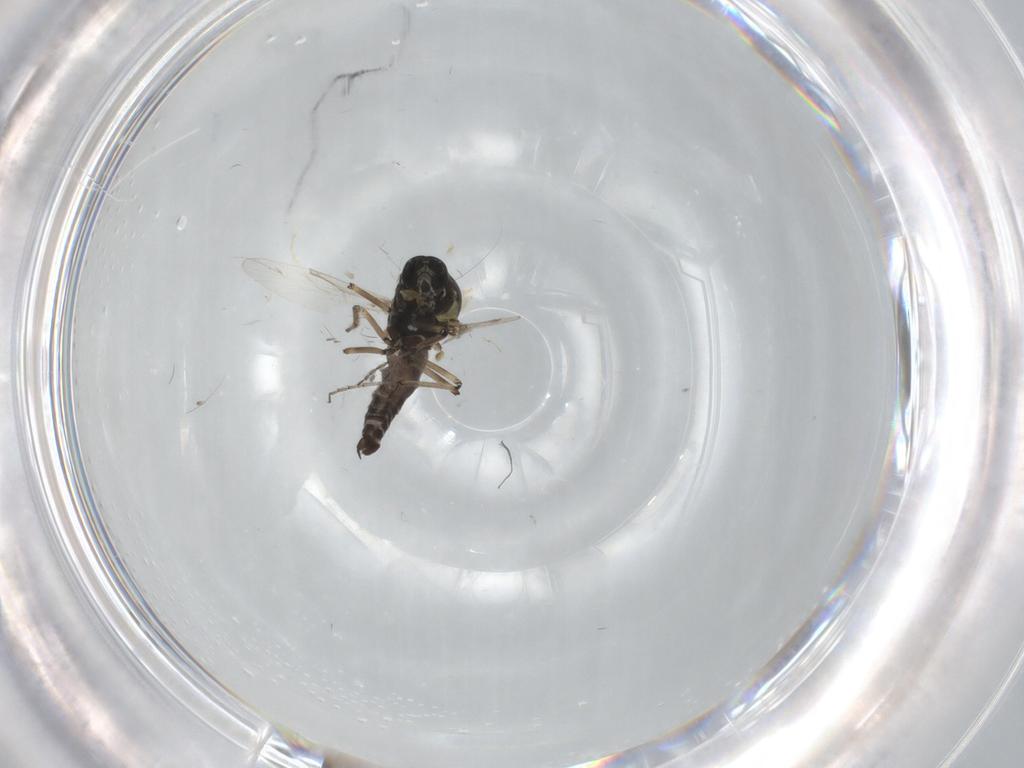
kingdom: Animalia
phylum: Arthropoda
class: Insecta
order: Diptera
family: Ceratopogonidae
